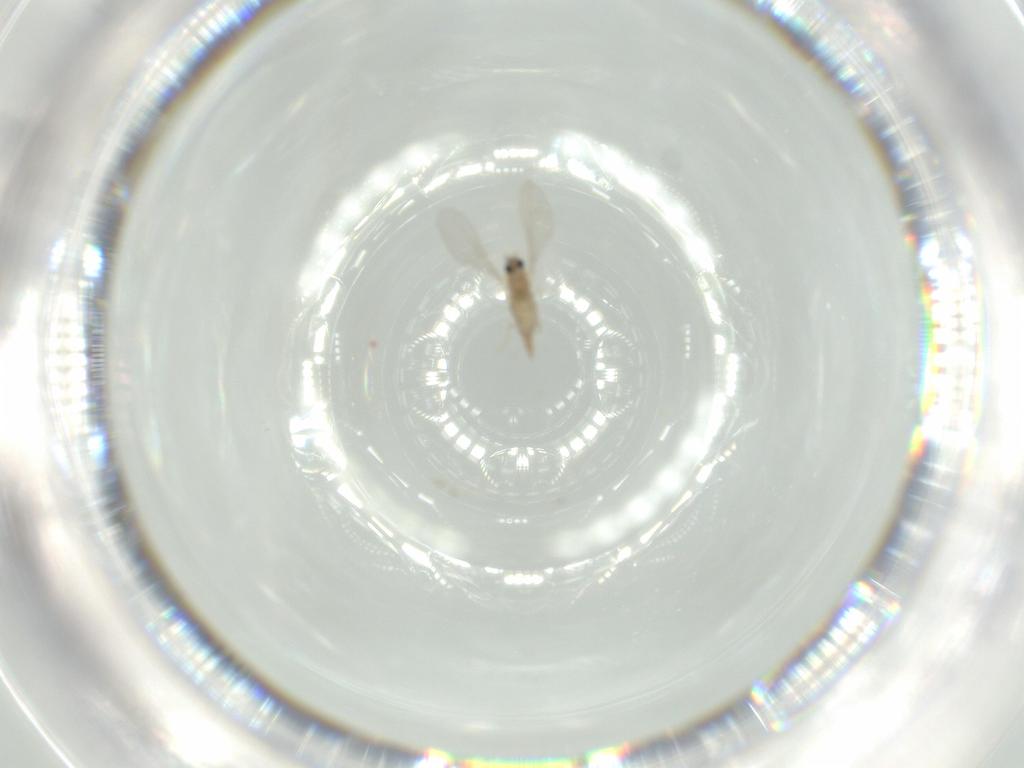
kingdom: Animalia
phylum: Arthropoda
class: Insecta
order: Diptera
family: Cecidomyiidae
